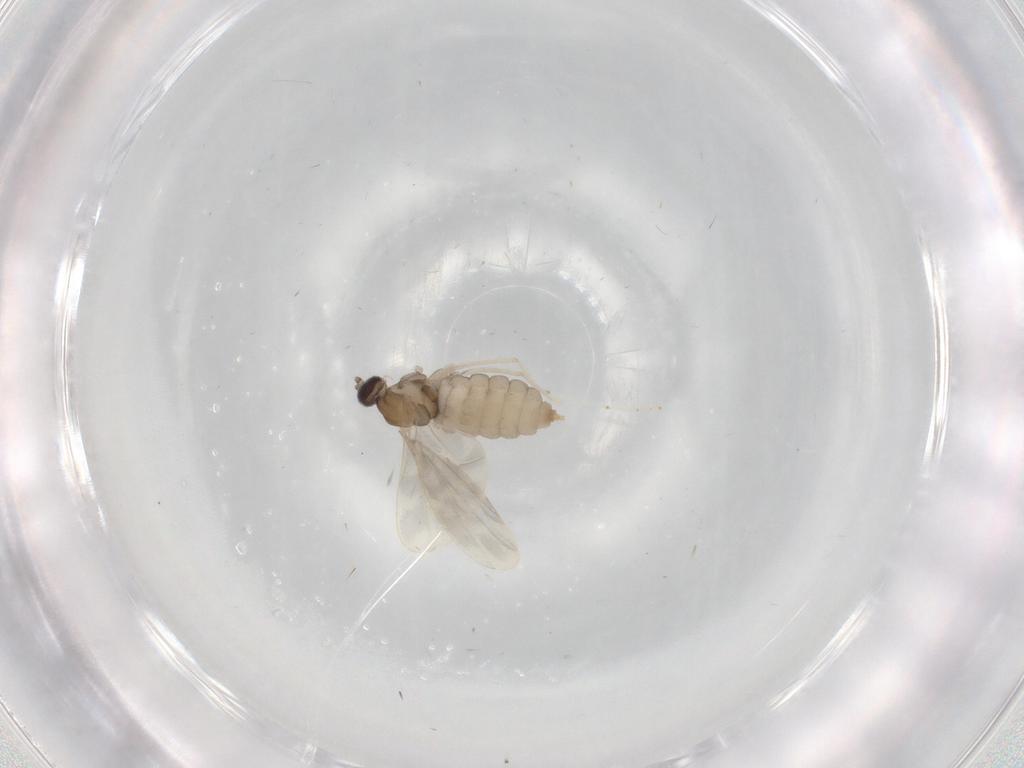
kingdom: Animalia
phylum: Arthropoda
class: Insecta
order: Diptera
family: Cecidomyiidae
